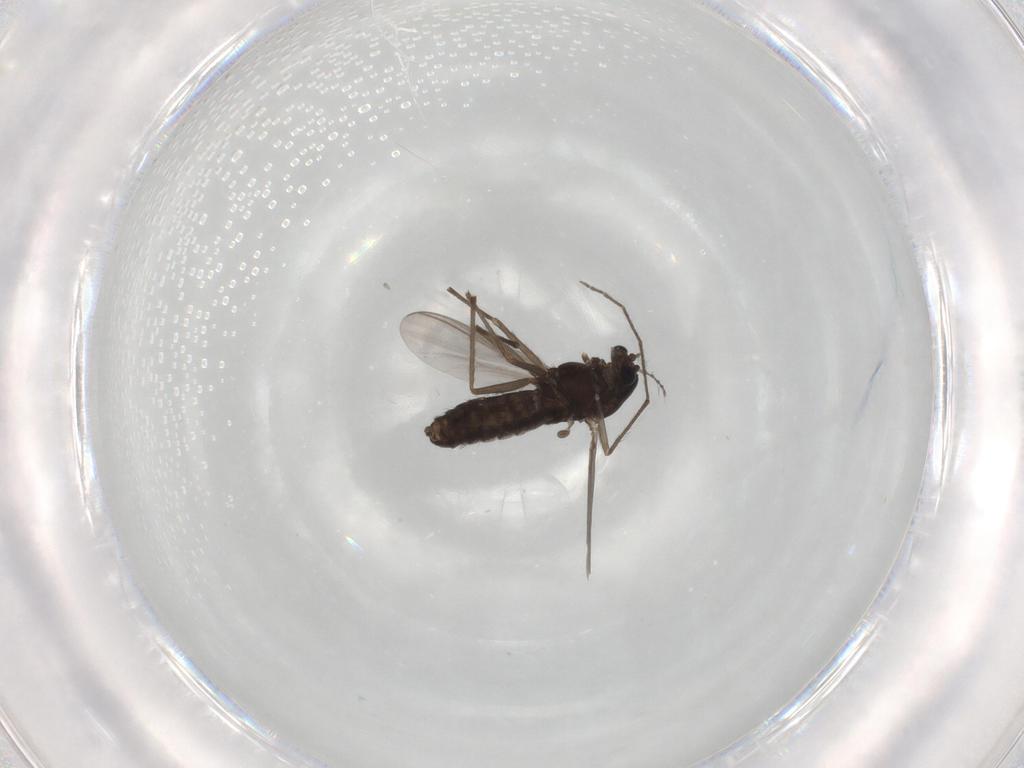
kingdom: Animalia
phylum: Arthropoda
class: Insecta
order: Diptera
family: Chironomidae
